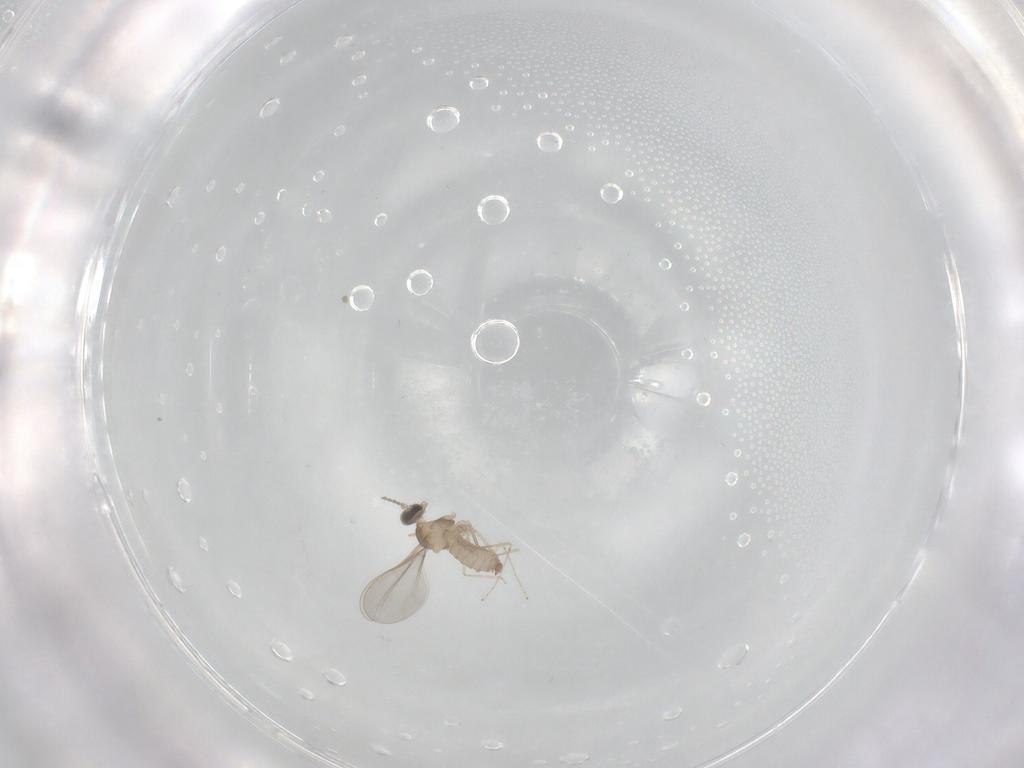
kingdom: Animalia
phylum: Arthropoda
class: Insecta
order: Diptera
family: Cecidomyiidae
